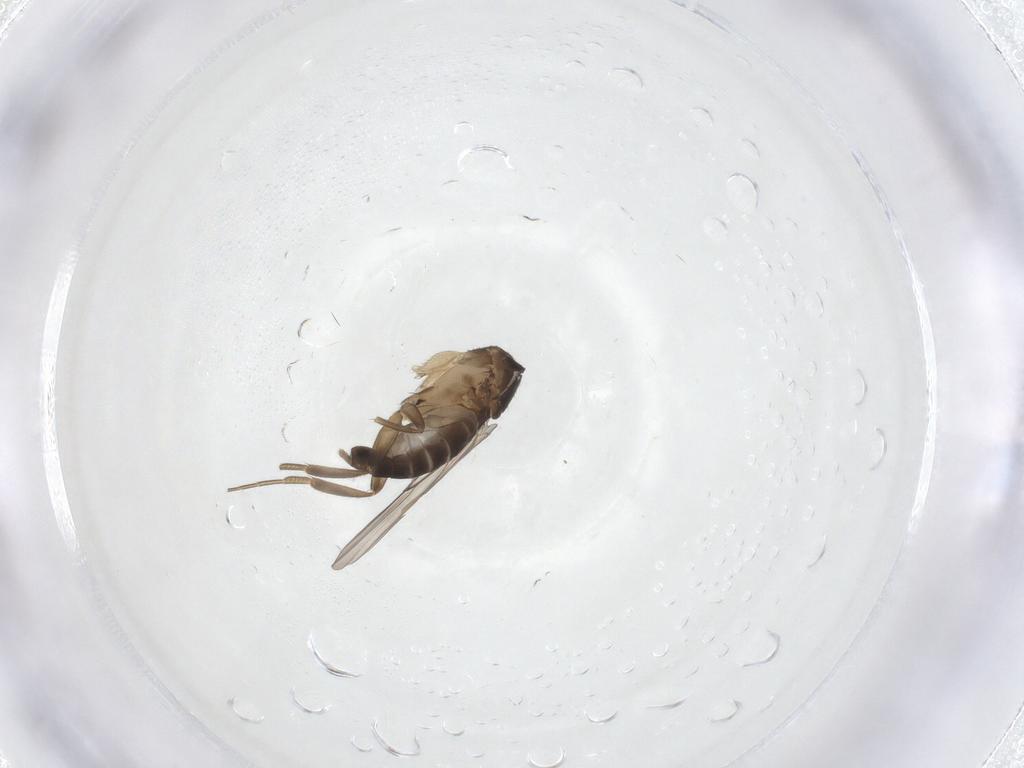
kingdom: Animalia
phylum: Arthropoda
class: Insecta
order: Diptera
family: Phoridae
